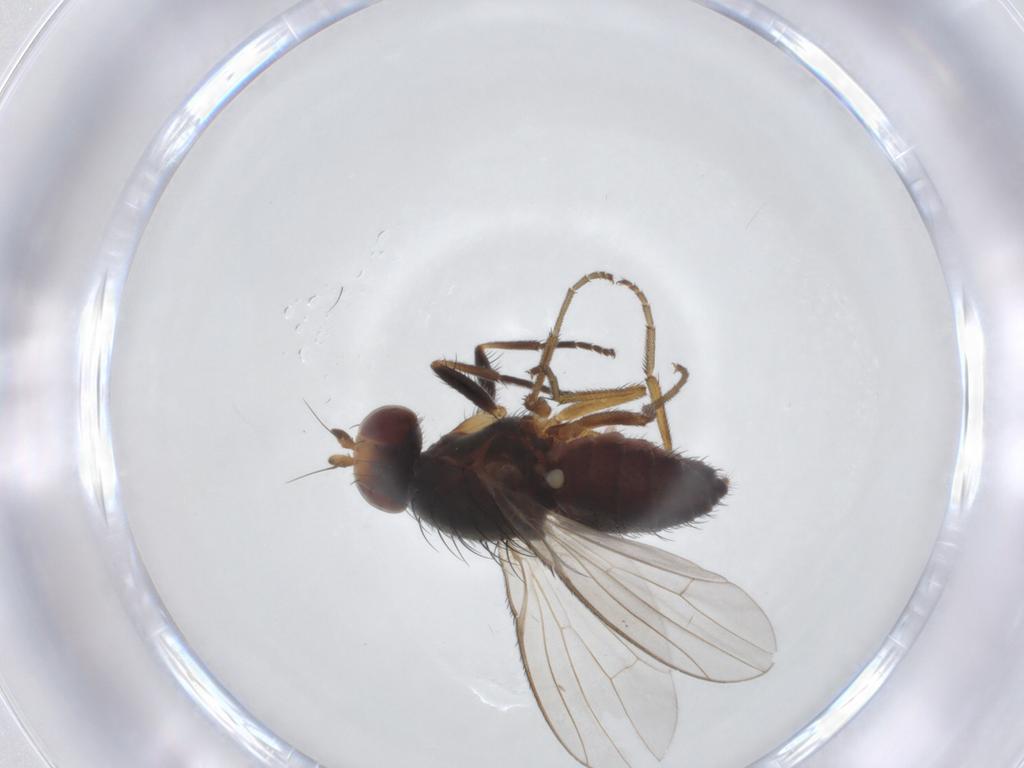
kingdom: Animalia
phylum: Arthropoda
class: Insecta
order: Diptera
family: Heleomyzidae
